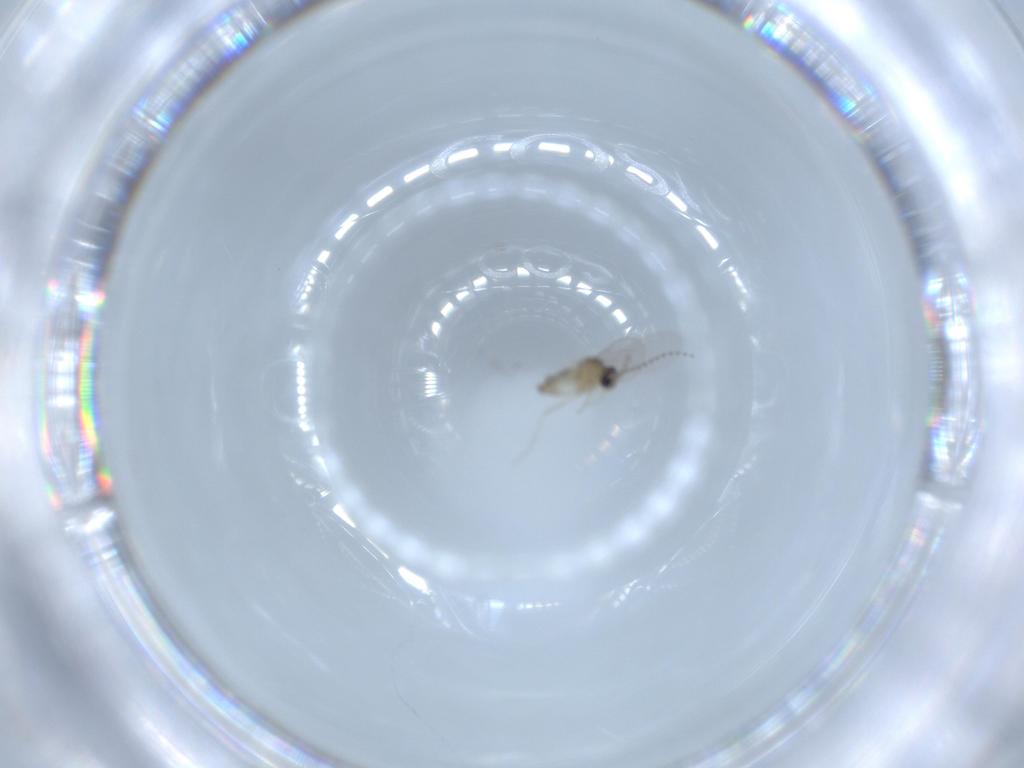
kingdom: Animalia
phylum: Arthropoda
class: Insecta
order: Diptera
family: Cecidomyiidae
